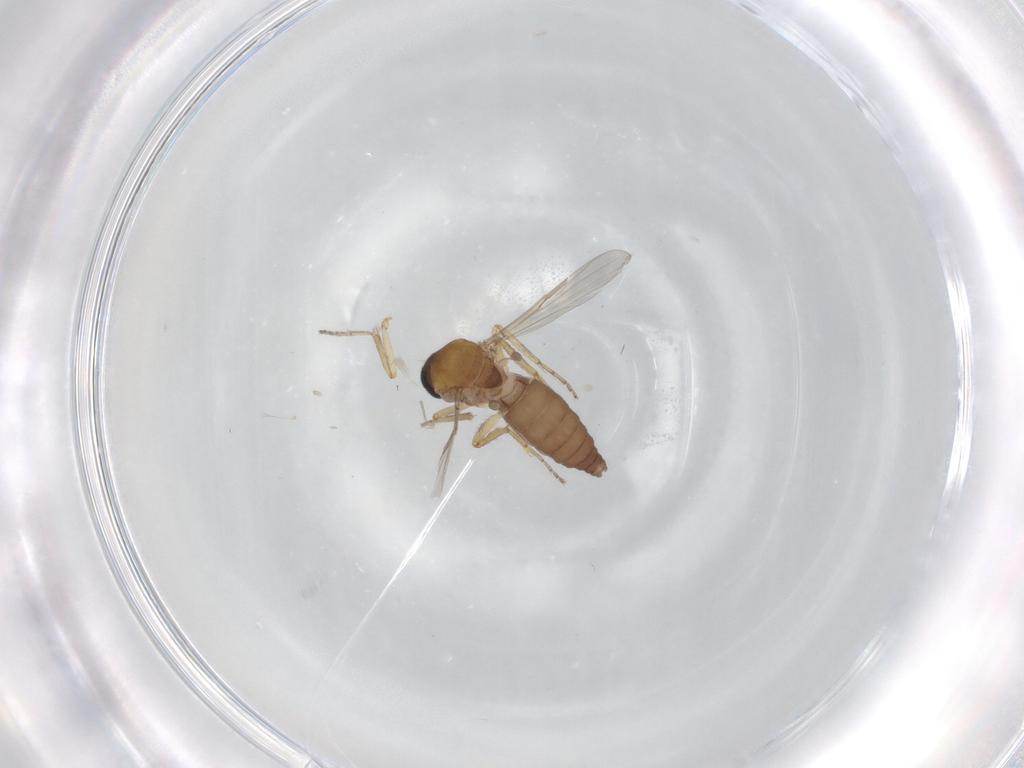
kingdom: Animalia
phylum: Arthropoda
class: Insecta
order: Diptera
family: Ceratopogonidae
